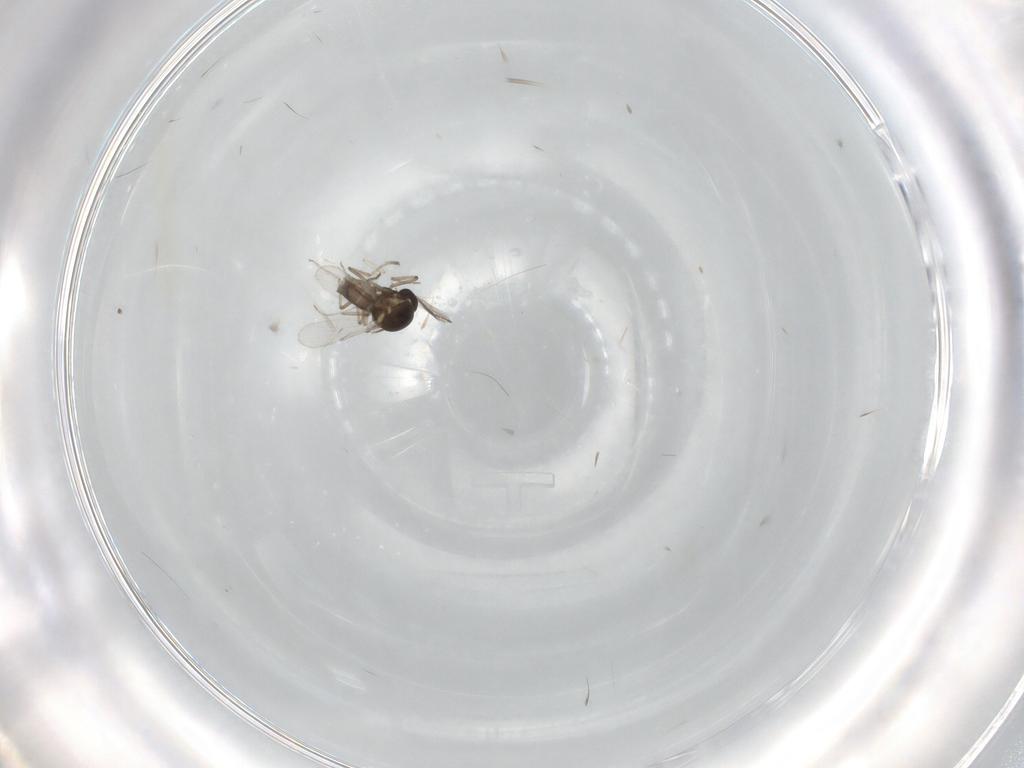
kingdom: Animalia
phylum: Arthropoda
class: Insecta
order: Diptera
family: Ceratopogonidae
